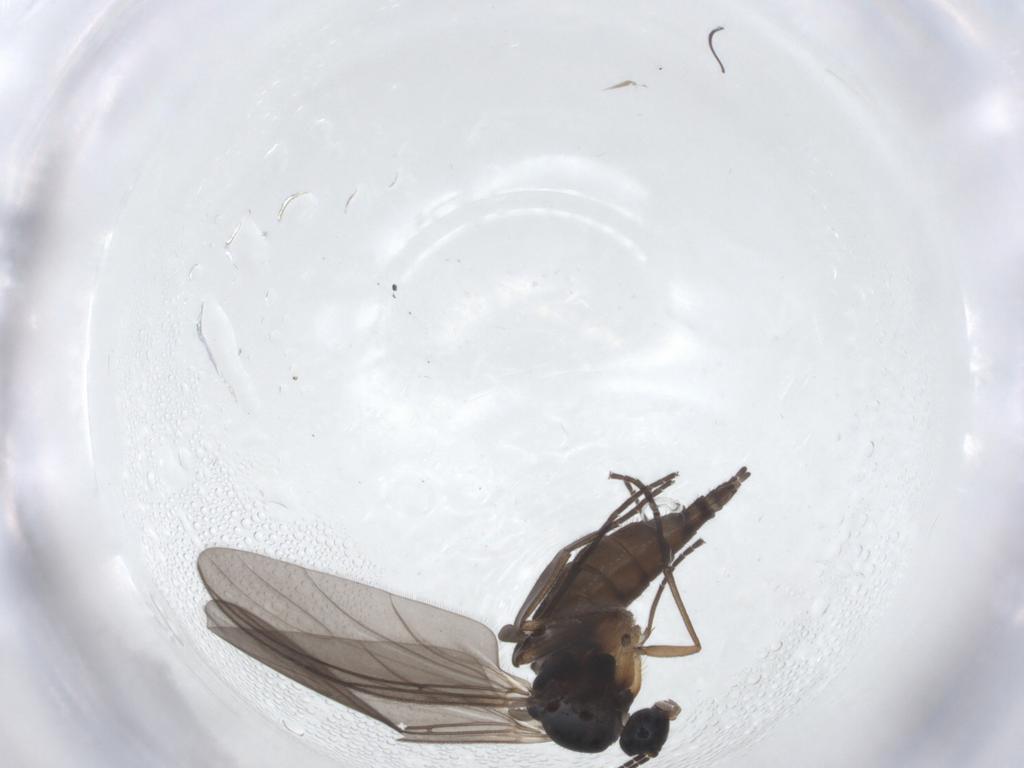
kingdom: Animalia
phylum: Arthropoda
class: Insecta
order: Diptera
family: Sciaridae
